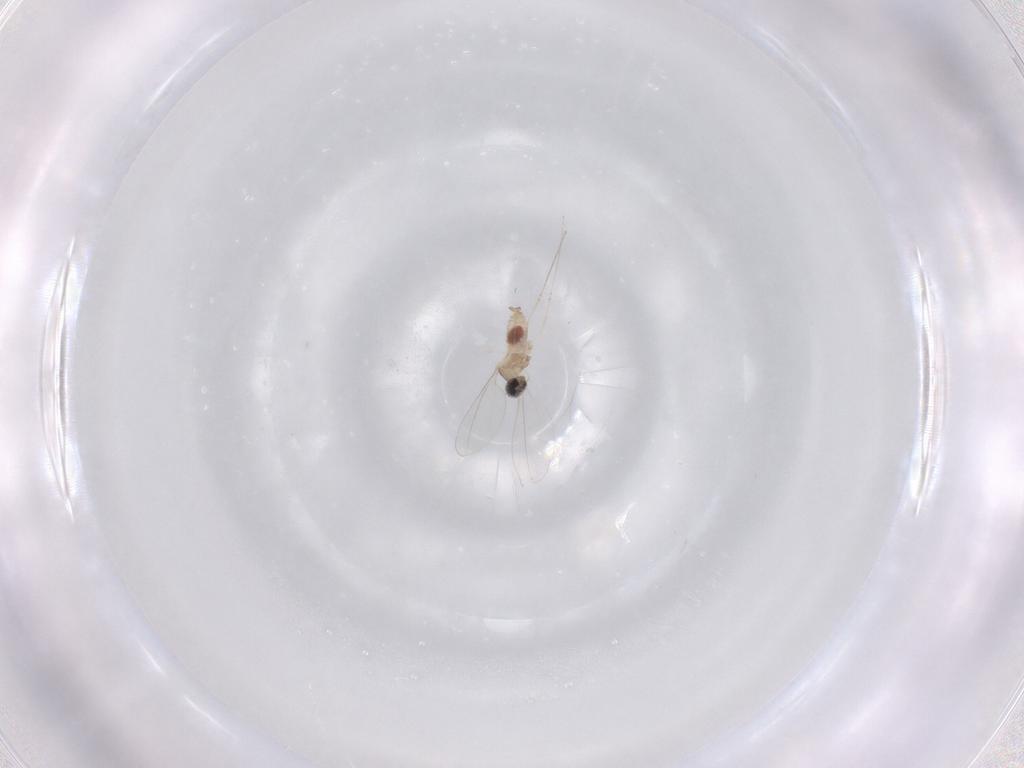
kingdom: Animalia
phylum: Arthropoda
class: Insecta
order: Diptera
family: Cecidomyiidae
